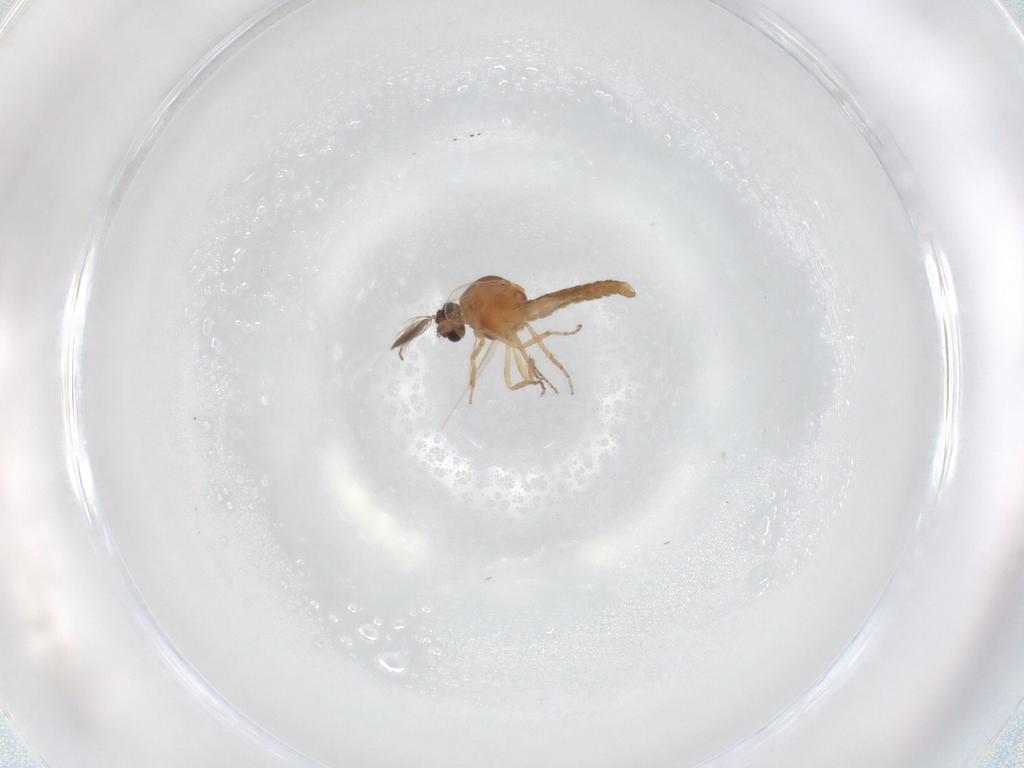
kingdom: Animalia
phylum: Arthropoda
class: Insecta
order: Diptera
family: Ceratopogonidae
